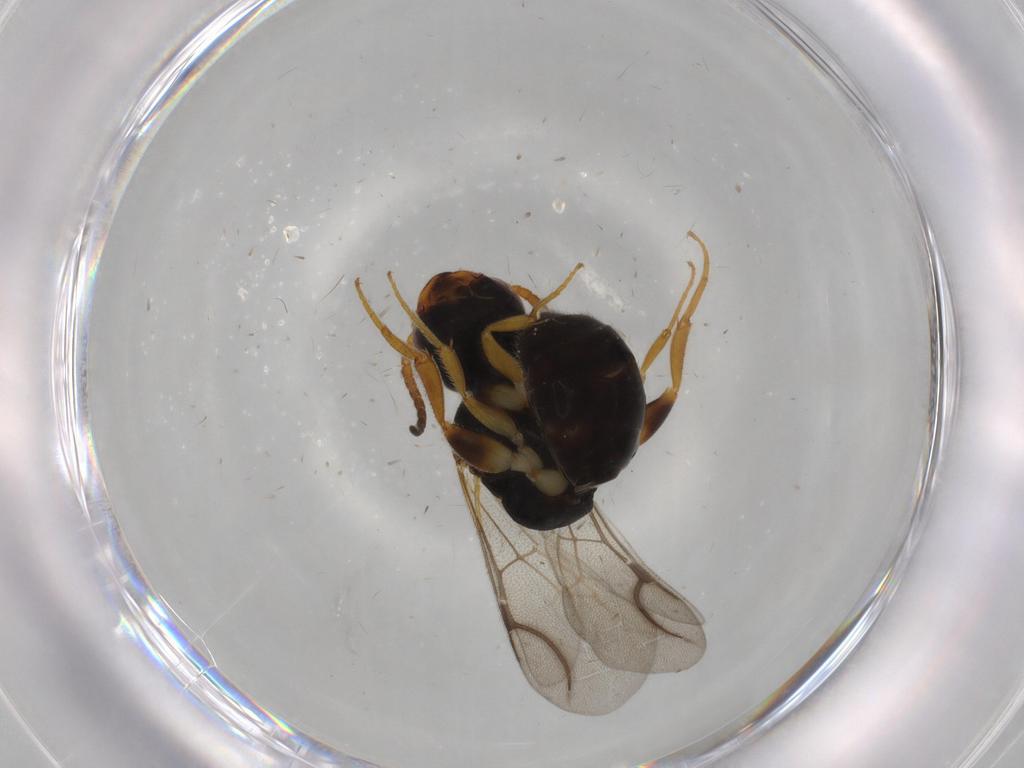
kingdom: Animalia
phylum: Arthropoda
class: Insecta
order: Hymenoptera
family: Bethylidae
